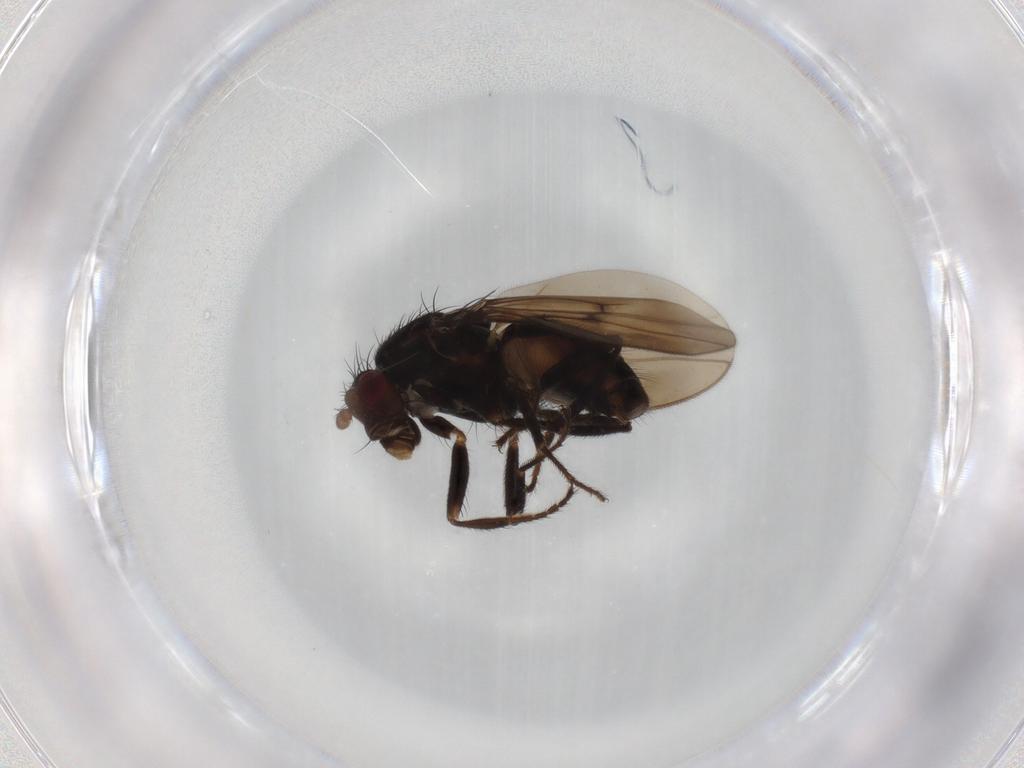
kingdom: Animalia
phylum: Arthropoda
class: Insecta
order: Diptera
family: Sphaeroceridae
